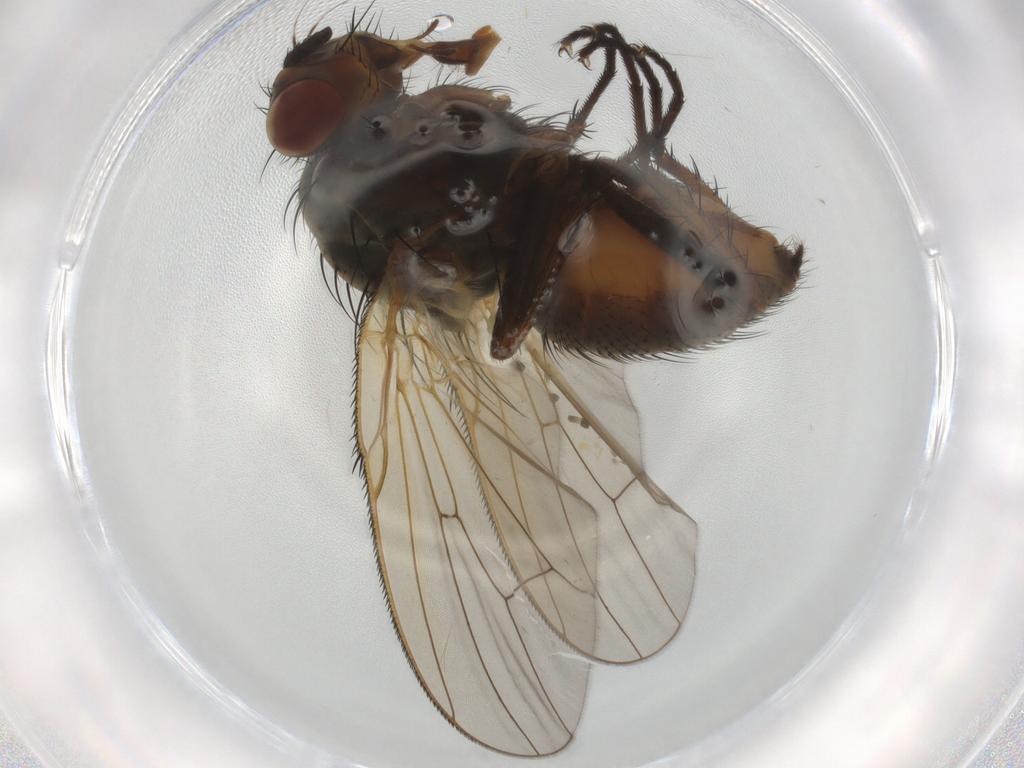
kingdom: Animalia
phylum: Arthropoda
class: Insecta
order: Diptera
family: Anthomyiidae
